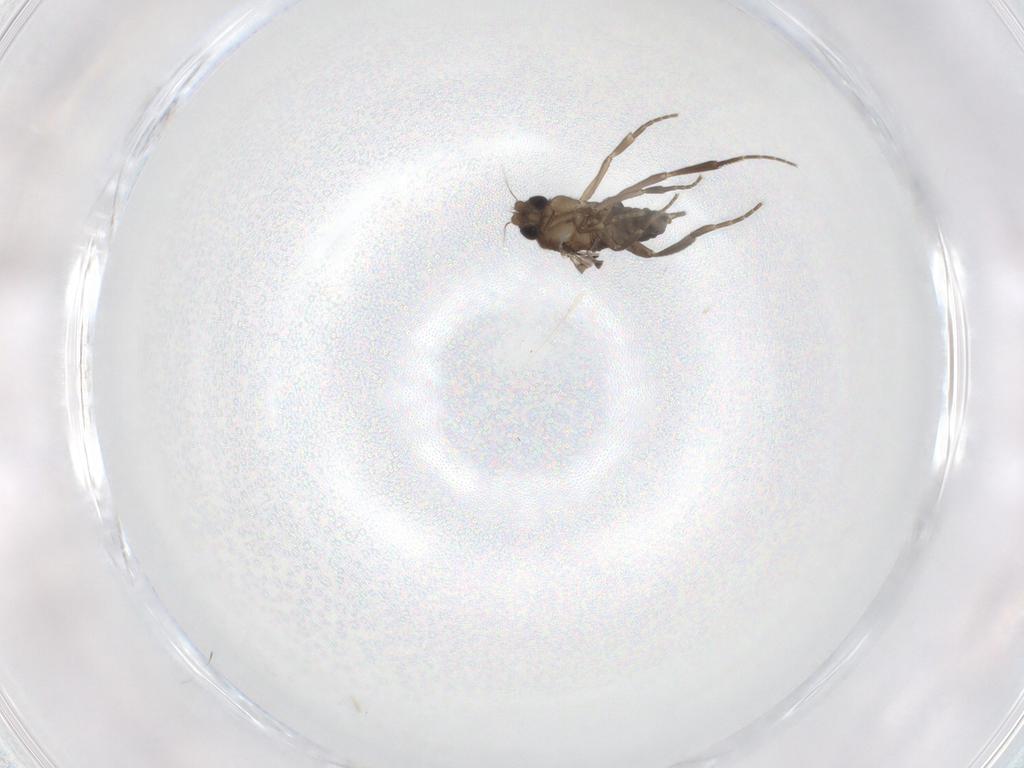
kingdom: Animalia
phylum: Arthropoda
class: Insecta
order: Diptera
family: Phoridae
